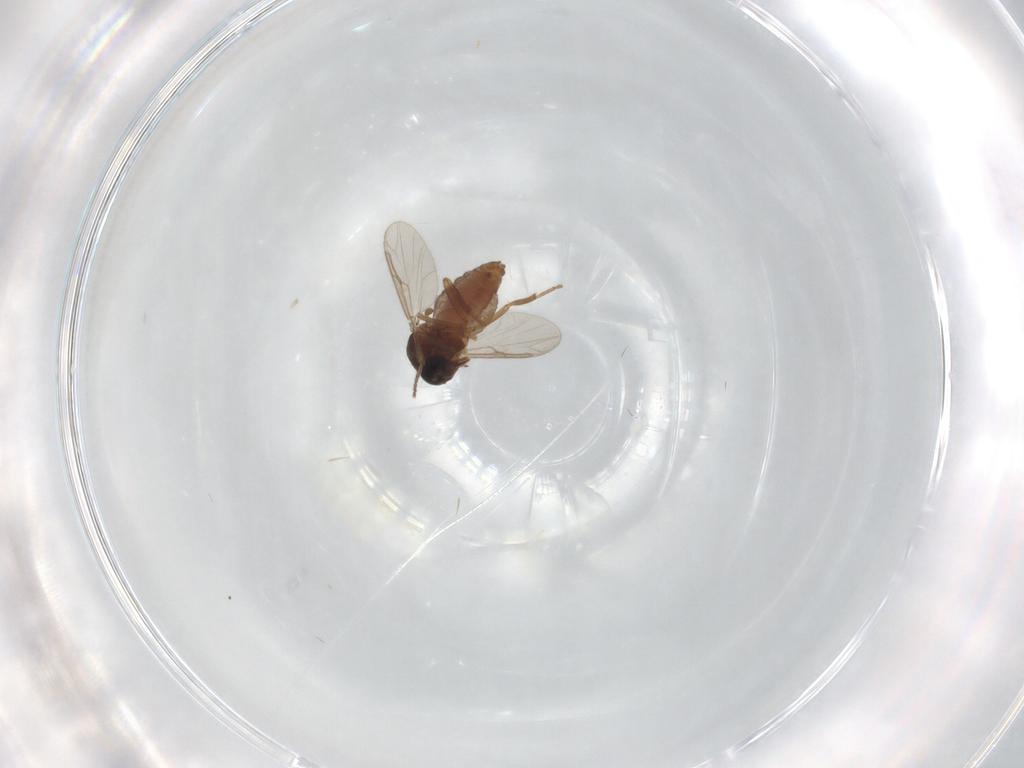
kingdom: Animalia
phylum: Arthropoda
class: Insecta
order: Diptera
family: Ceratopogonidae
